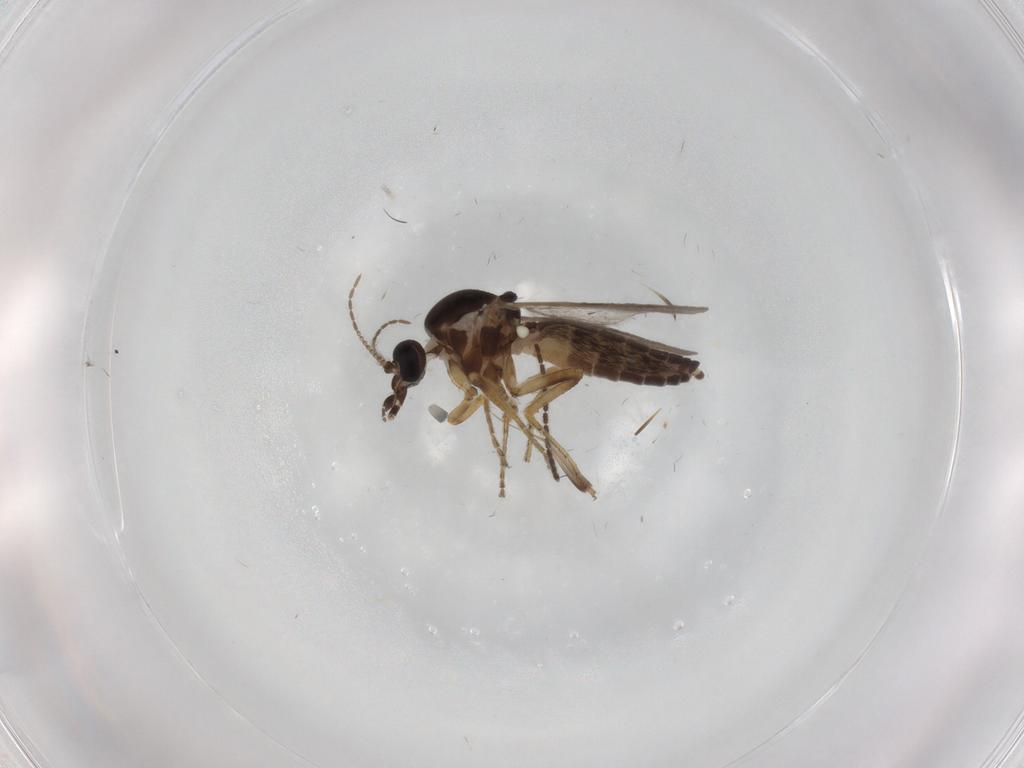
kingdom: Animalia
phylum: Arthropoda
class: Insecta
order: Diptera
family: Ceratopogonidae
